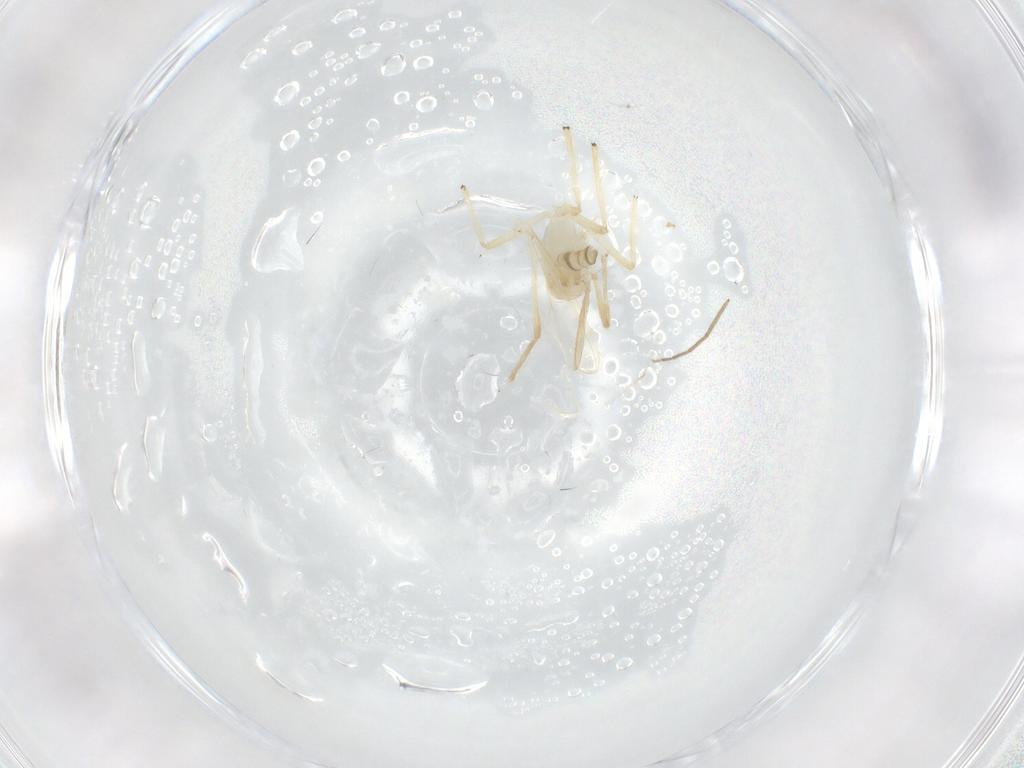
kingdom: Animalia
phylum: Arthropoda
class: Insecta
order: Diptera
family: Chironomidae
